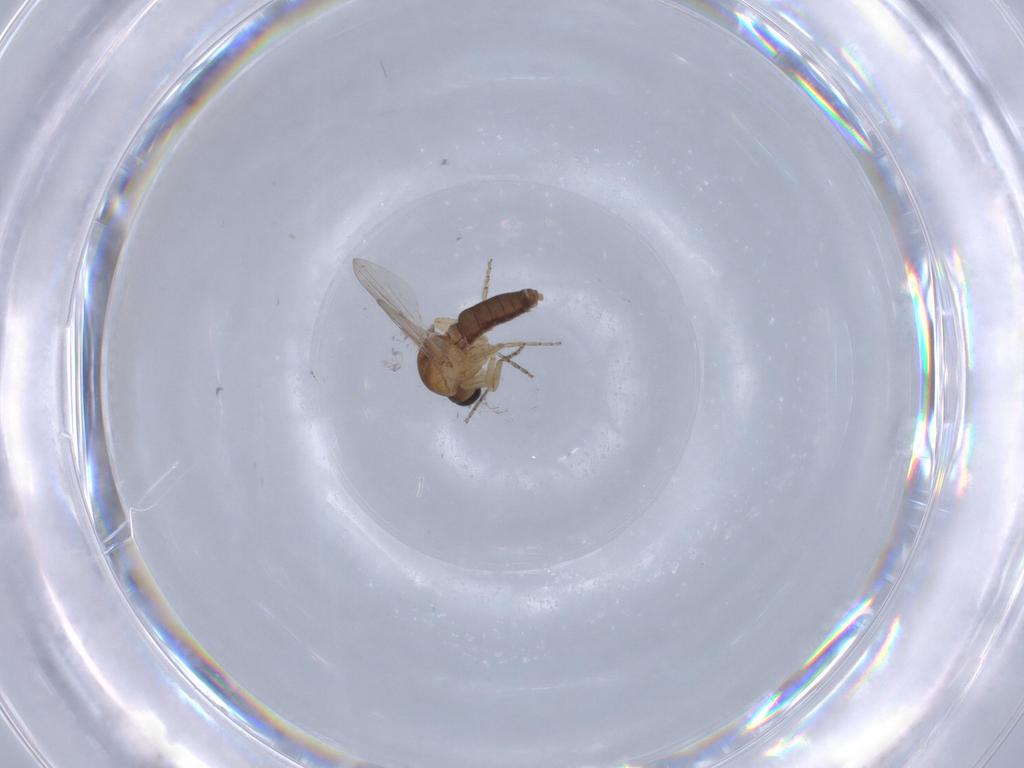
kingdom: Animalia
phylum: Arthropoda
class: Insecta
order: Diptera
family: Ceratopogonidae
